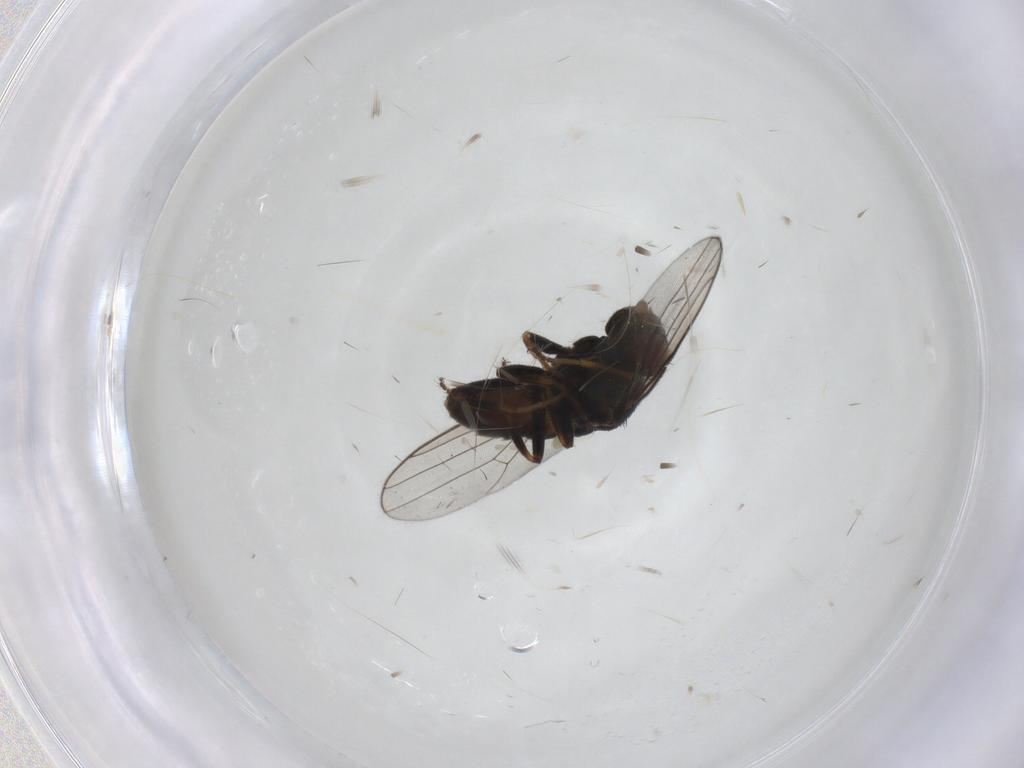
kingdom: Animalia
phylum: Arthropoda
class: Insecta
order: Diptera
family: Chloropidae
